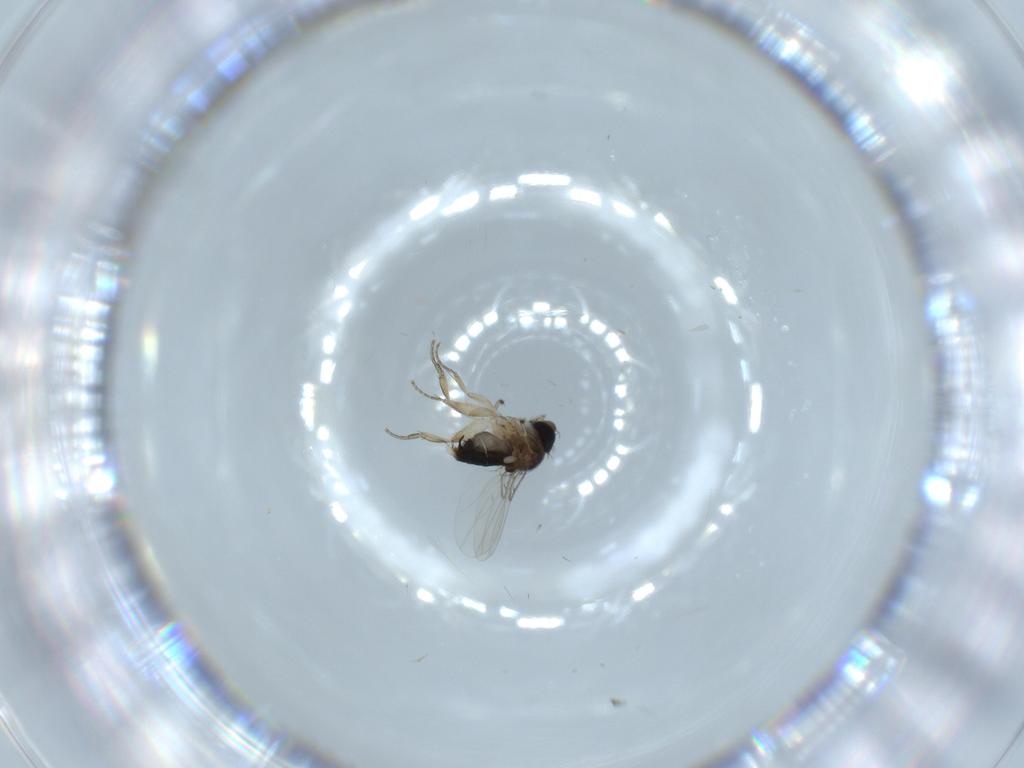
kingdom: Animalia
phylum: Arthropoda
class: Insecta
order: Diptera
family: Phoridae
